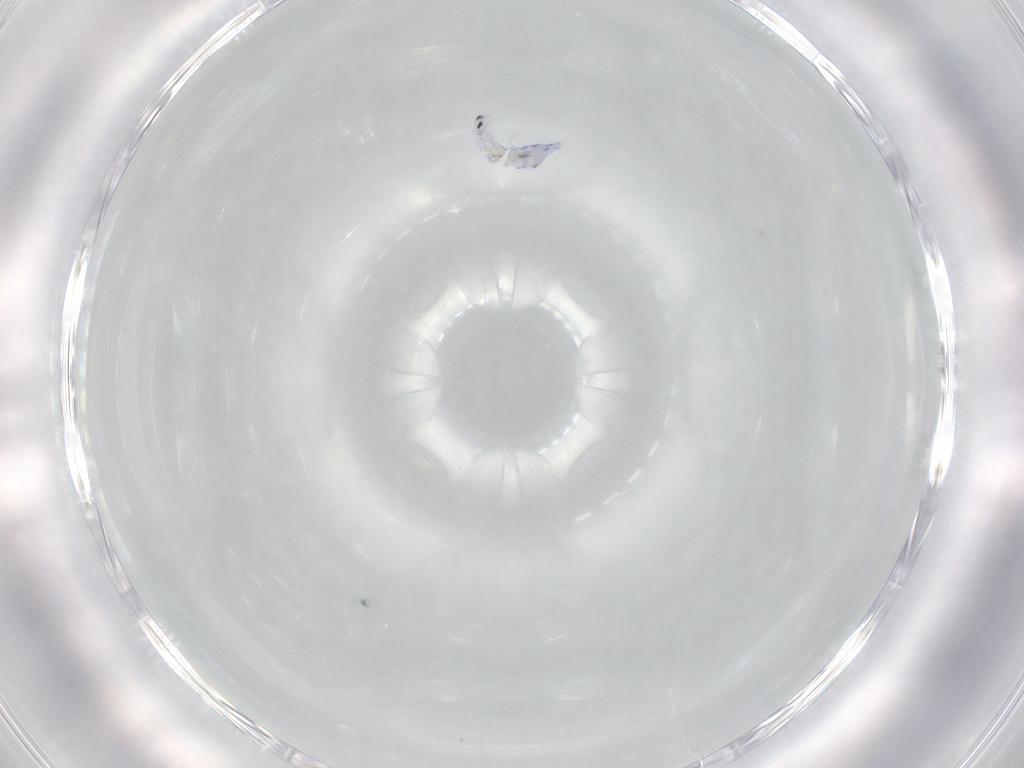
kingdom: Animalia
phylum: Arthropoda
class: Collembola
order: Entomobryomorpha
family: Entomobryidae
